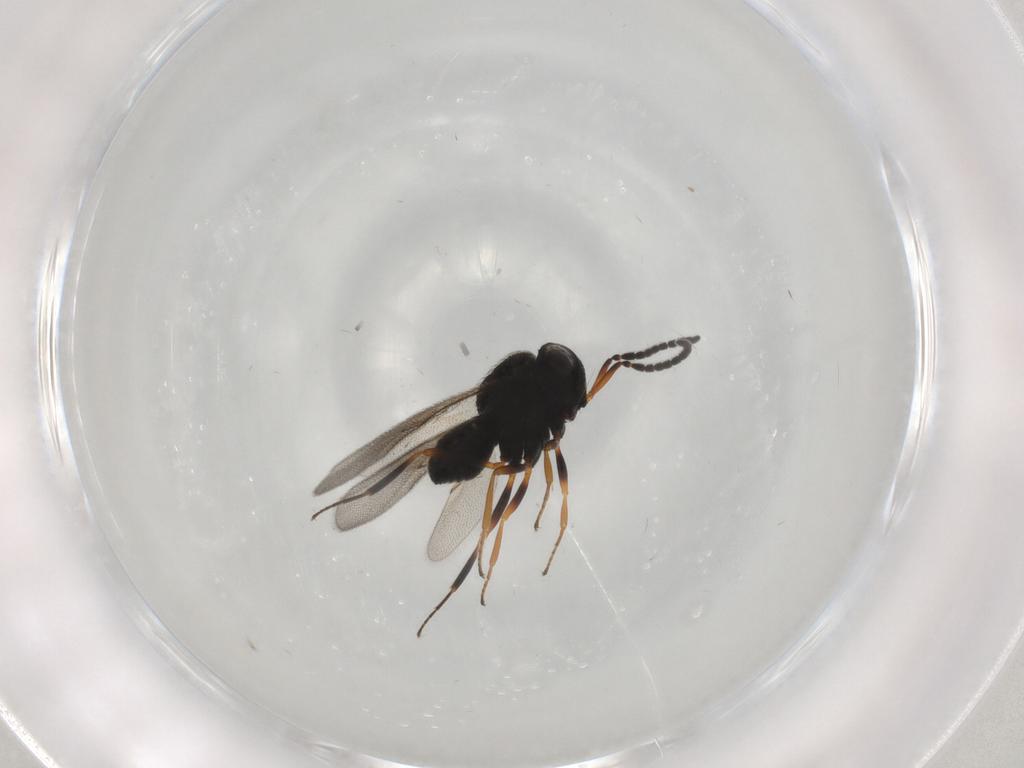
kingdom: Animalia
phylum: Arthropoda
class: Insecta
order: Hymenoptera
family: Scelionidae
